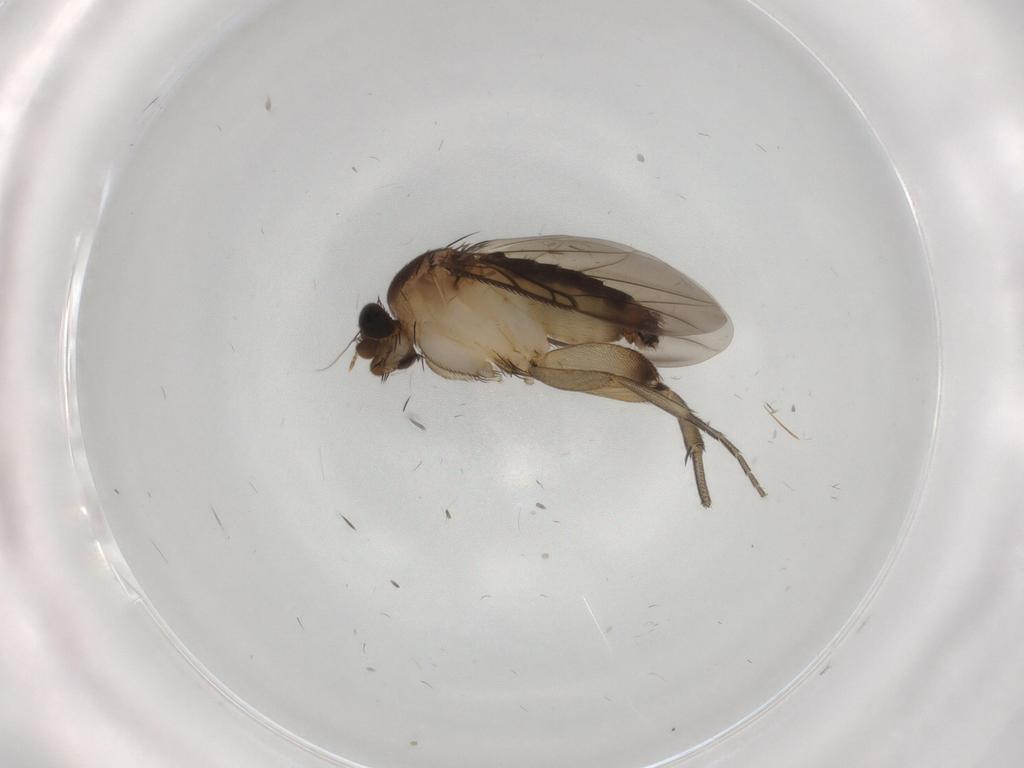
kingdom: Animalia
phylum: Arthropoda
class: Insecta
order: Diptera
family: Phoridae
